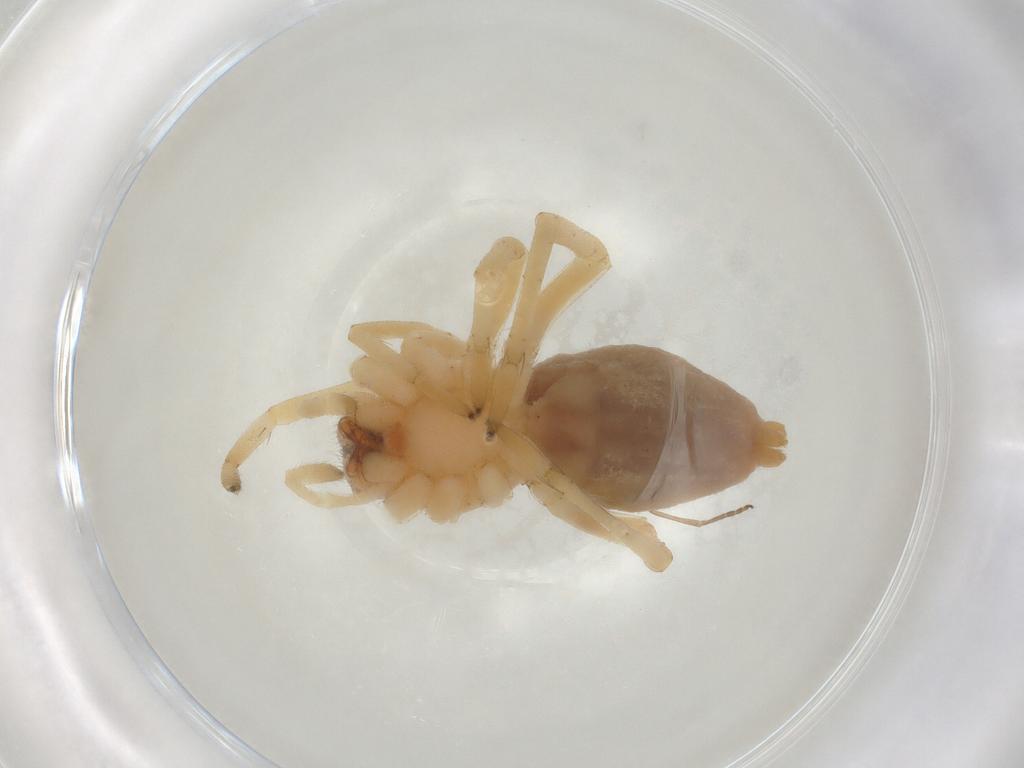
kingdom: Animalia
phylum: Arthropoda
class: Arachnida
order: Araneae
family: Cheiracanthiidae
